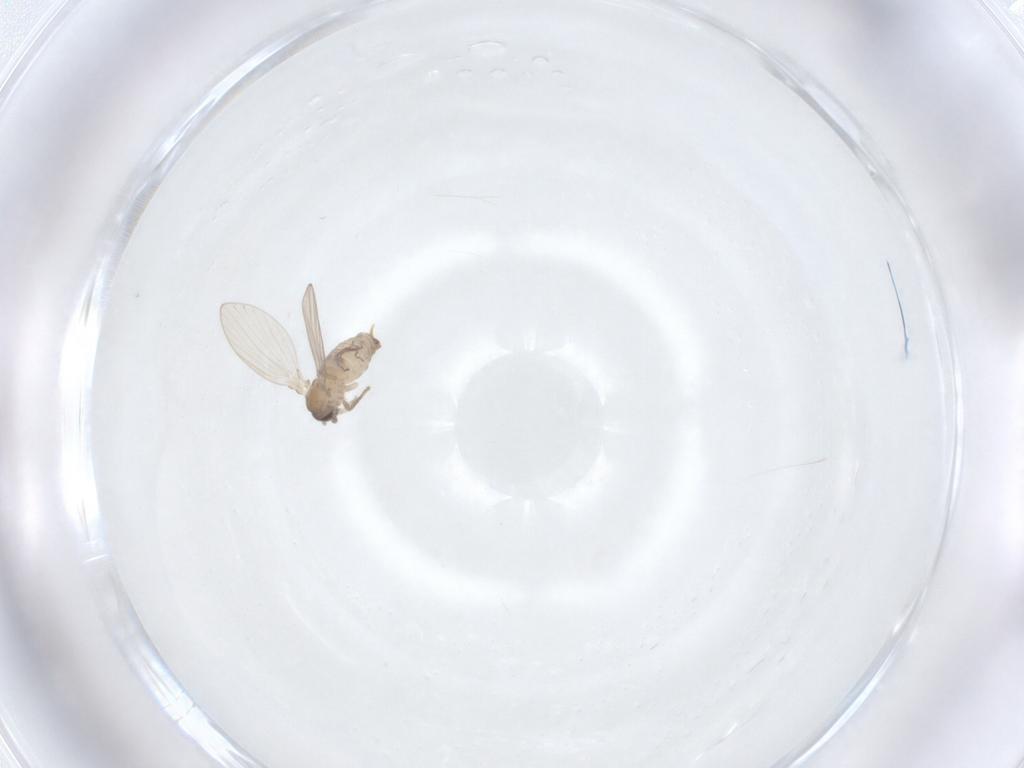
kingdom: Animalia
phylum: Arthropoda
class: Insecta
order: Diptera
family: Psychodidae
